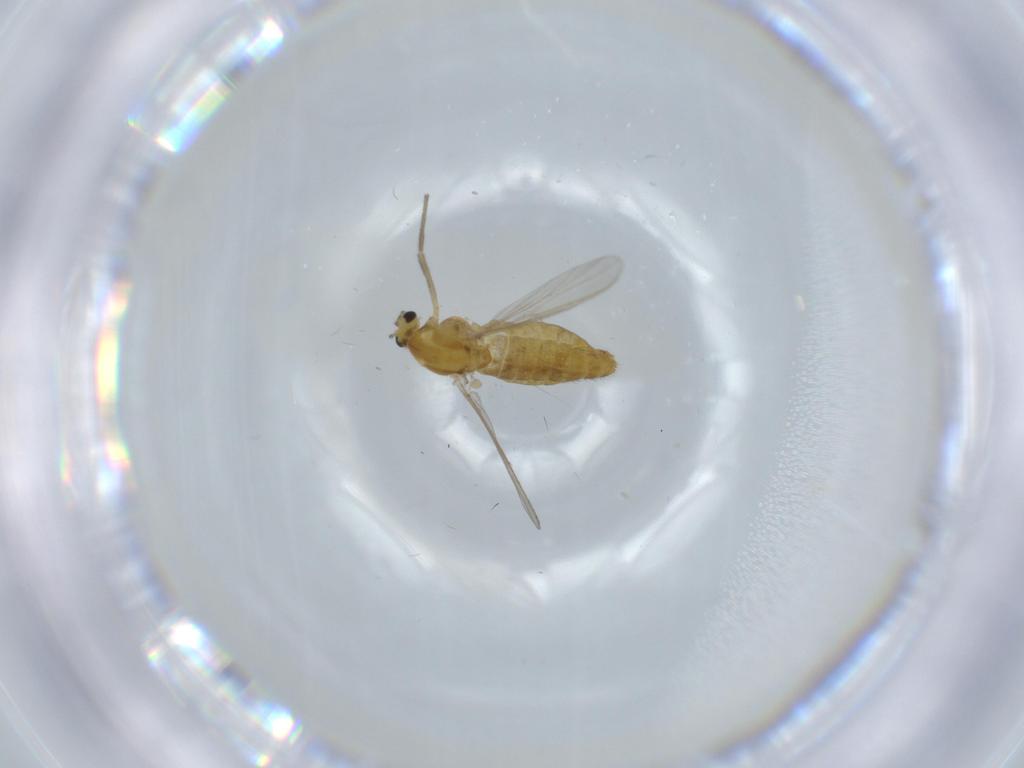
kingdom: Animalia
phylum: Arthropoda
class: Insecta
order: Diptera
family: Chironomidae
